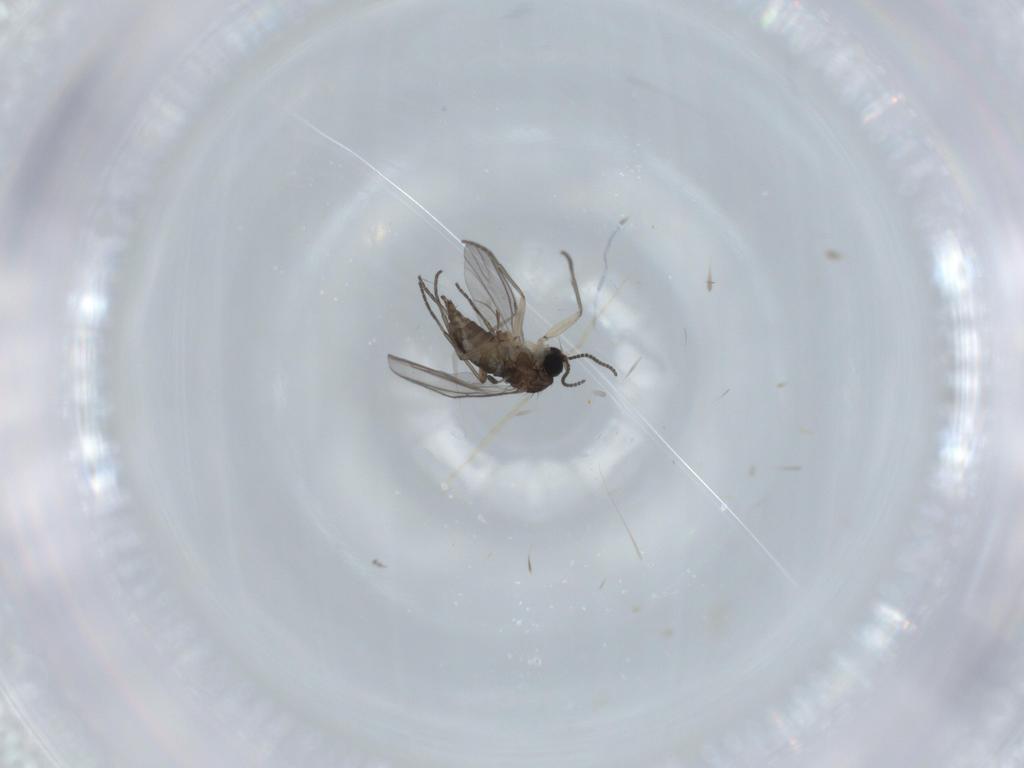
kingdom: Animalia
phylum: Arthropoda
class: Insecta
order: Diptera
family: Sciaridae
